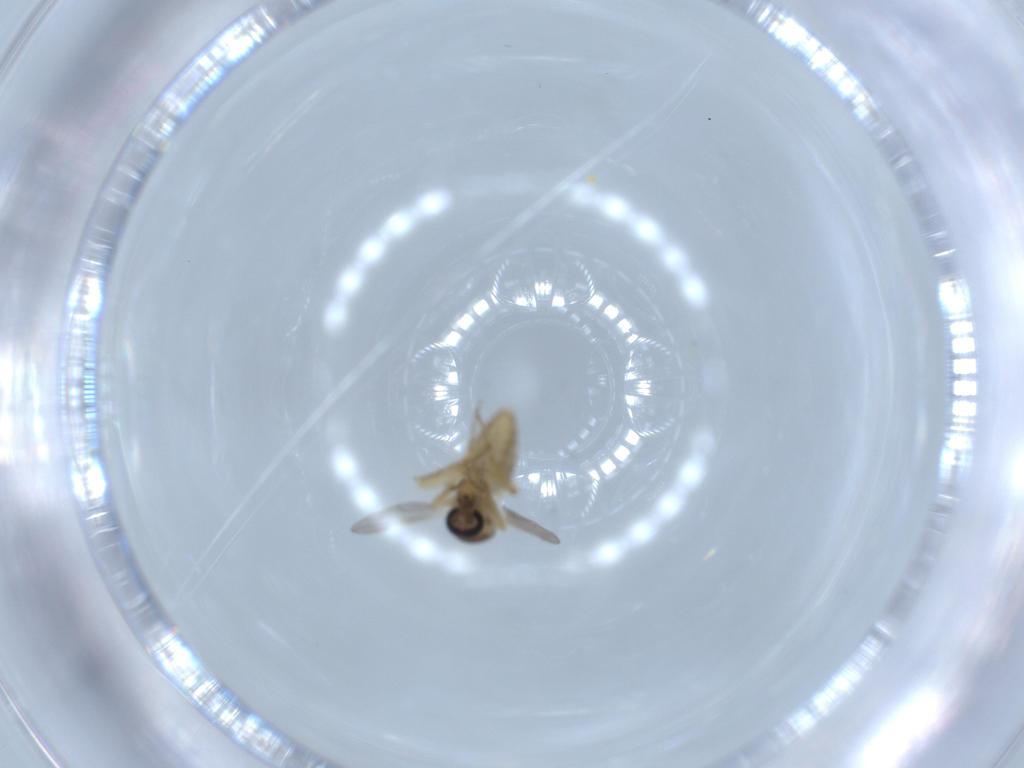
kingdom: Animalia
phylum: Arthropoda
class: Insecta
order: Diptera
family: Ceratopogonidae
